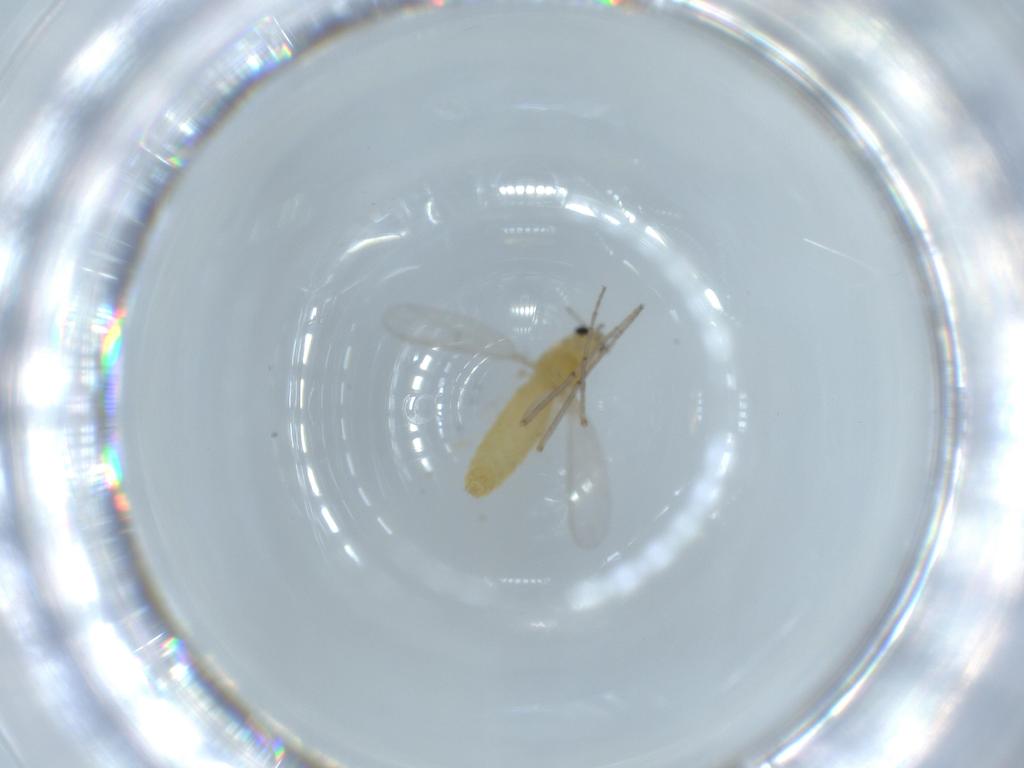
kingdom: Animalia
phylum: Arthropoda
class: Insecta
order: Diptera
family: Chironomidae
